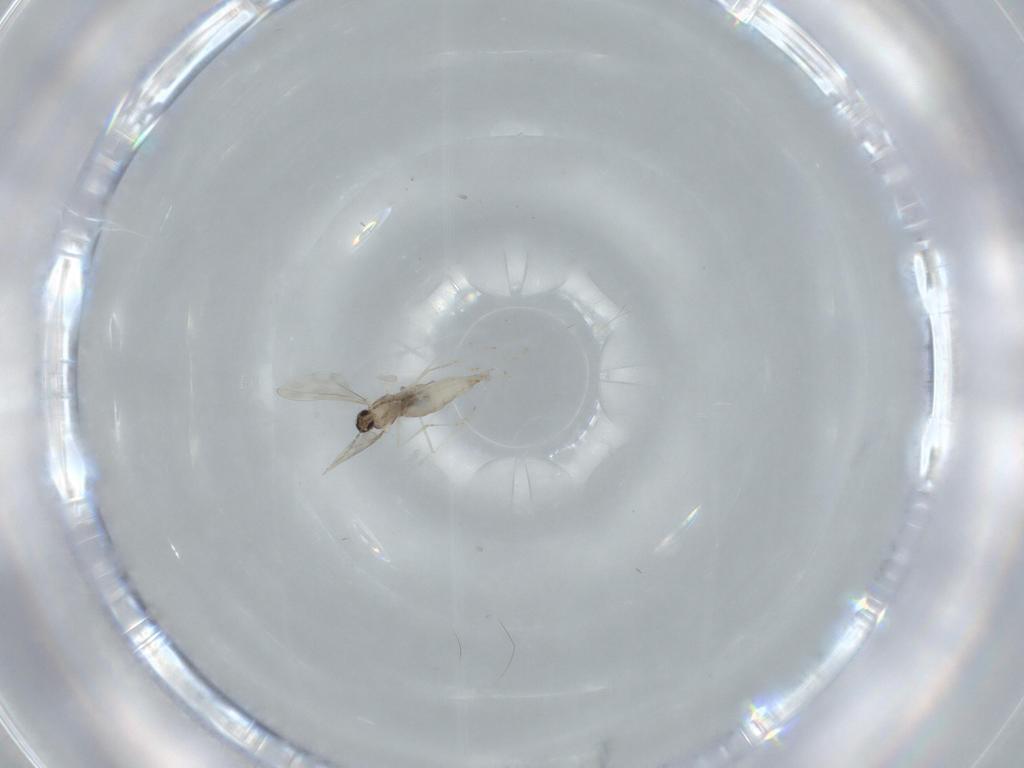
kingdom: Animalia
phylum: Arthropoda
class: Insecta
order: Diptera
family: Cecidomyiidae
